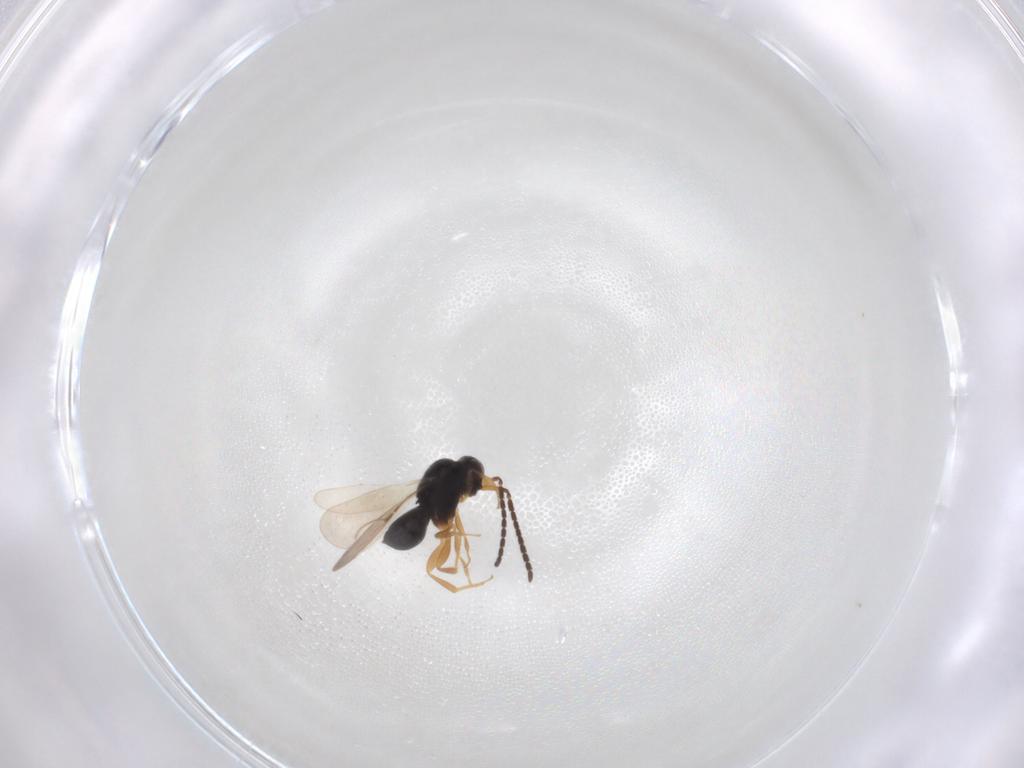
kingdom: Animalia
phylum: Arthropoda
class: Insecta
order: Hymenoptera
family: Trichogrammatidae
